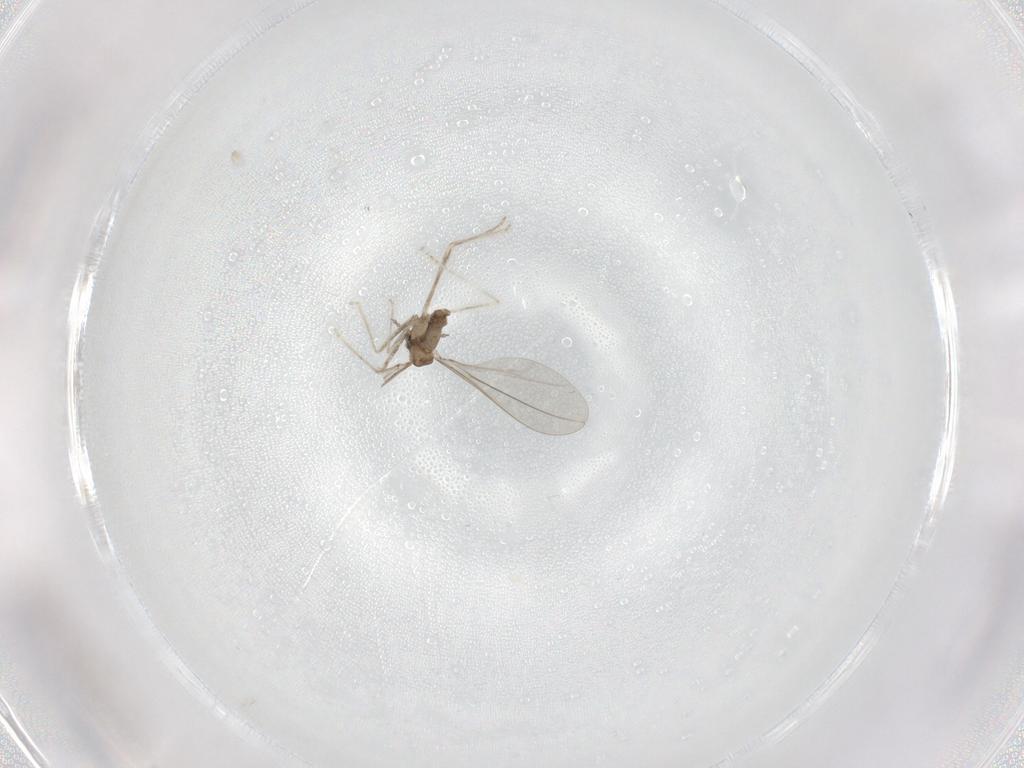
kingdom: Animalia
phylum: Arthropoda
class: Insecta
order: Diptera
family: Cecidomyiidae
